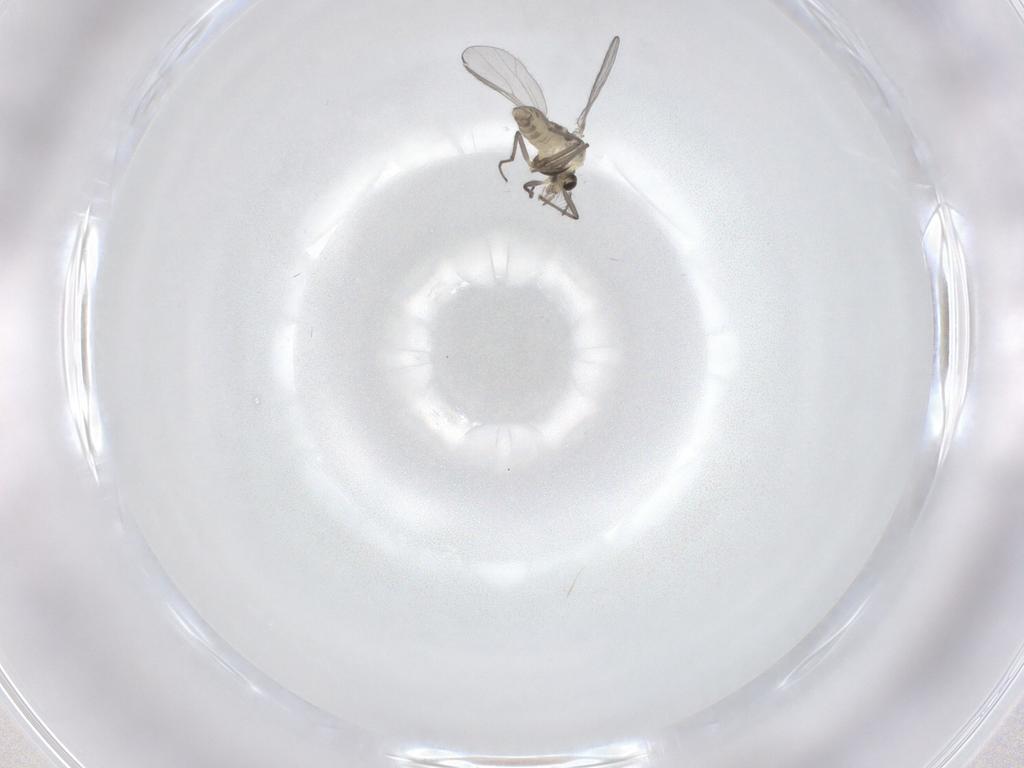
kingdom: Animalia
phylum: Arthropoda
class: Insecta
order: Diptera
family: Chironomidae
